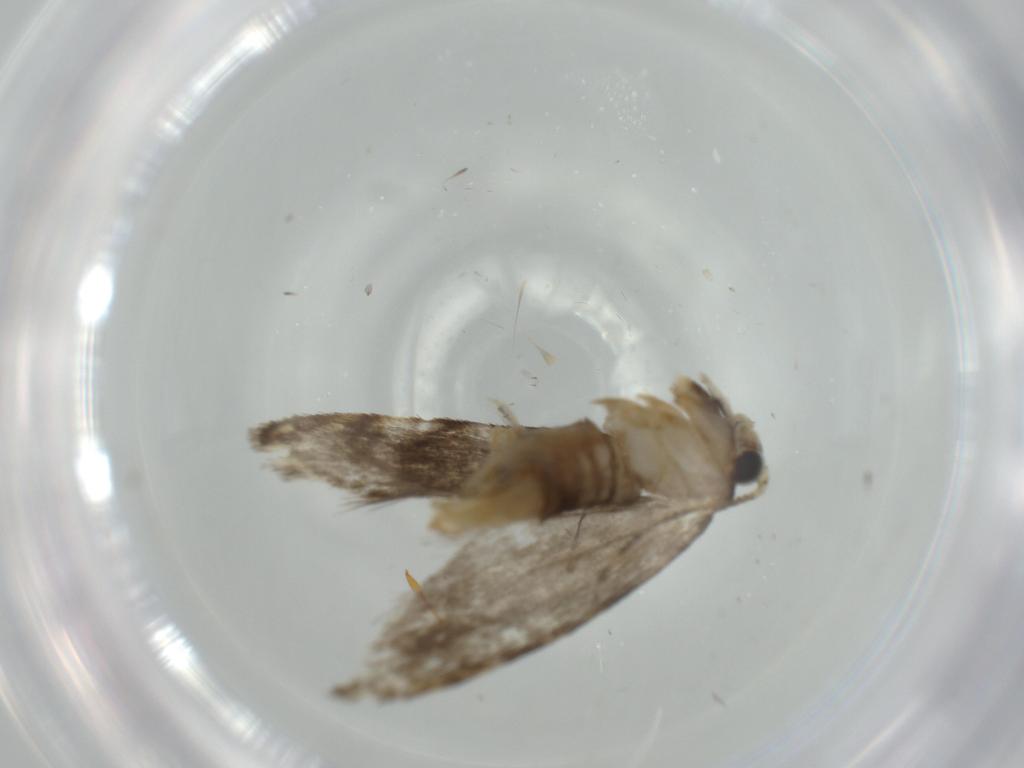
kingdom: Animalia
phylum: Arthropoda
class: Insecta
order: Lepidoptera
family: Tineidae
